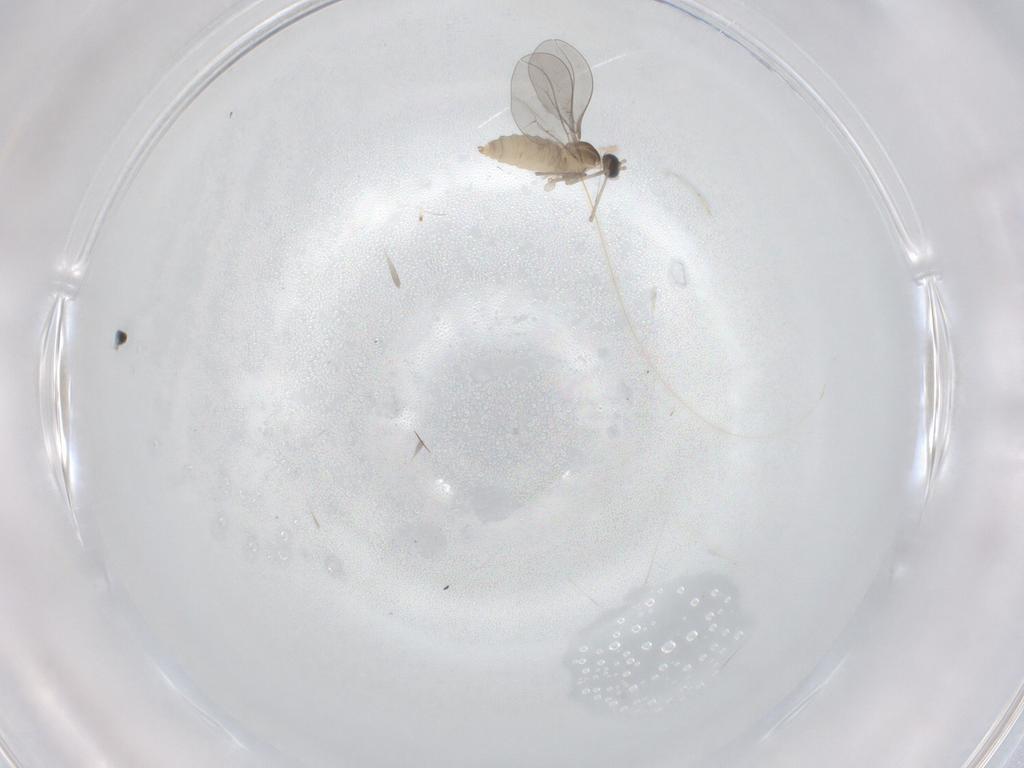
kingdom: Animalia
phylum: Arthropoda
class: Insecta
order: Diptera
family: Cecidomyiidae
